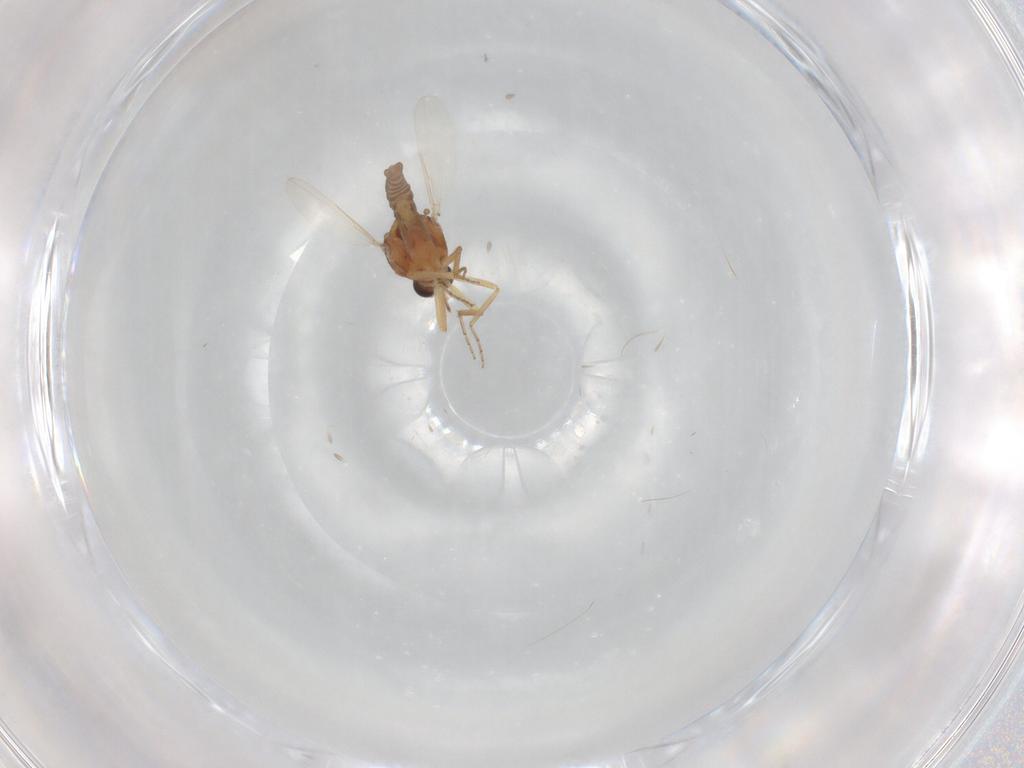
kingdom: Animalia
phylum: Arthropoda
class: Insecta
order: Diptera
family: Ceratopogonidae
